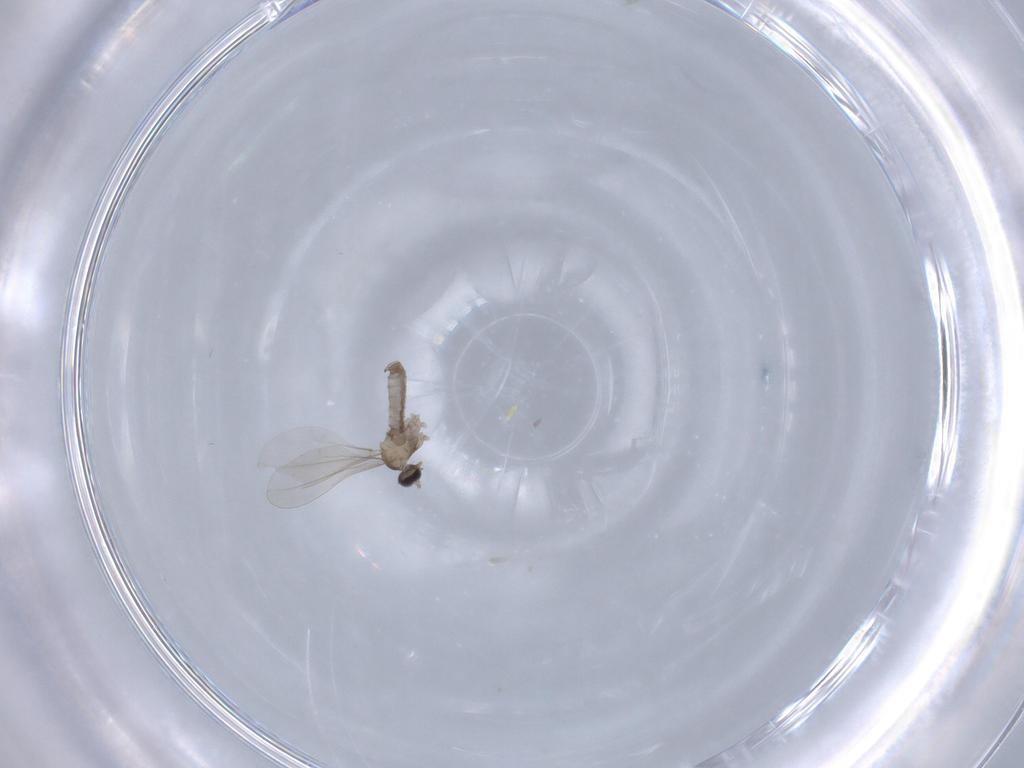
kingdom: Animalia
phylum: Arthropoda
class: Insecta
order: Diptera
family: Cecidomyiidae
